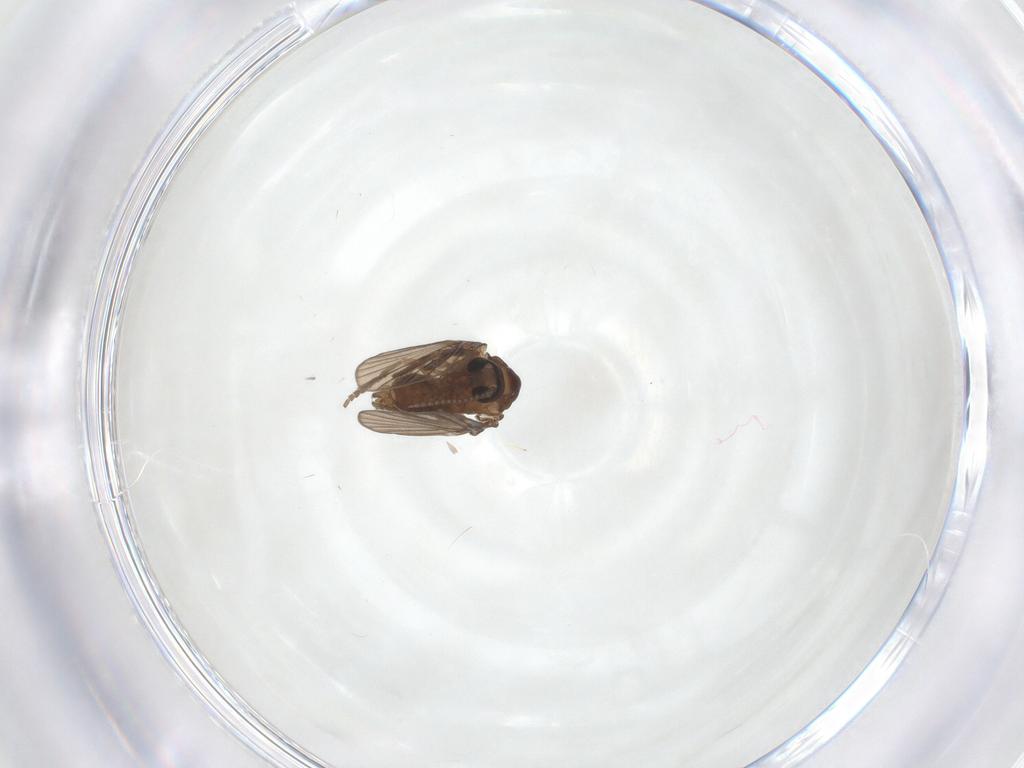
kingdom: Animalia
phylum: Arthropoda
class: Insecta
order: Diptera
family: Psychodidae
